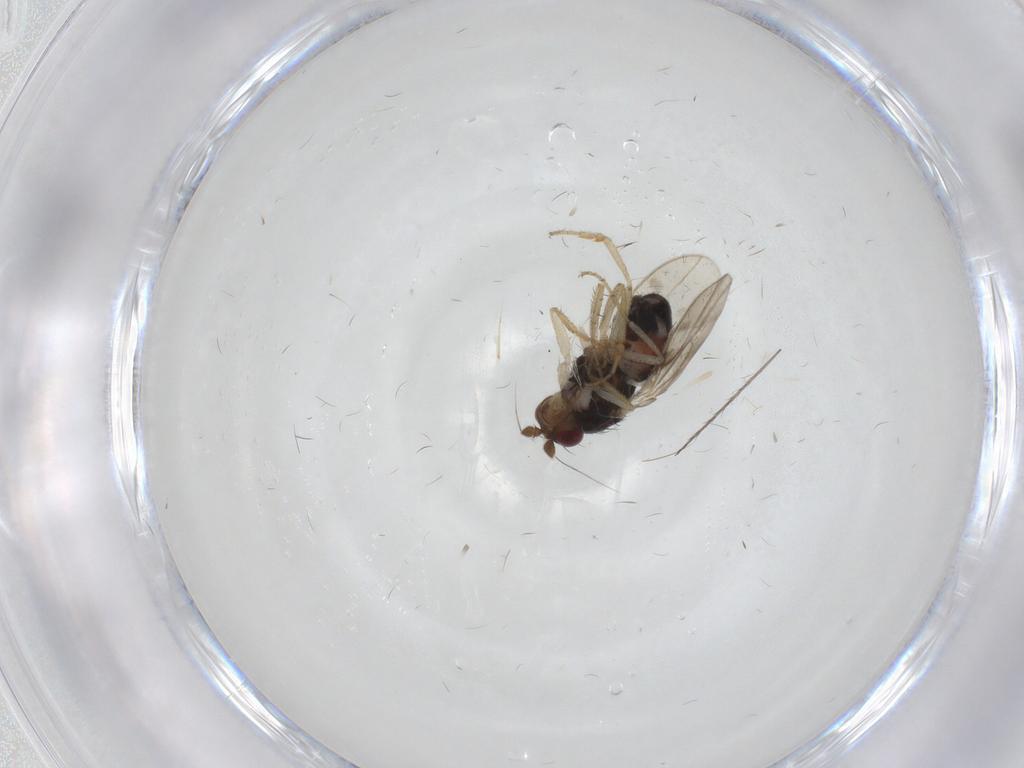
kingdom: Animalia
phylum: Arthropoda
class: Insecta
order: Diptera
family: Sphaeroceridae
